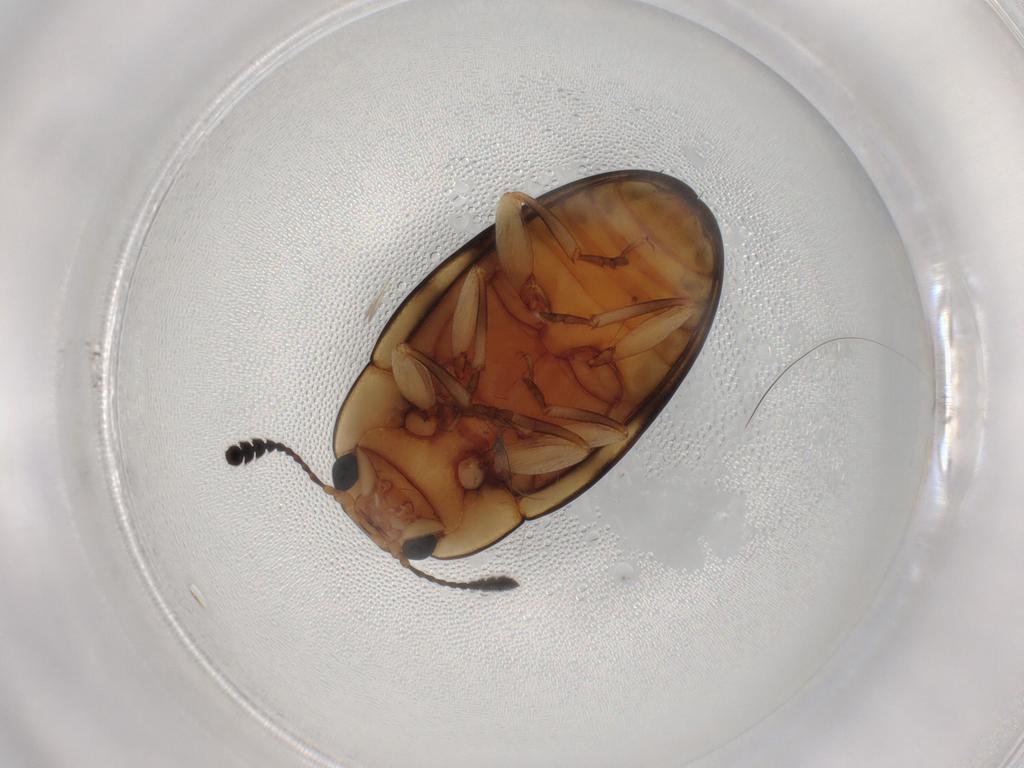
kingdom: Animalia
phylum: Arthropoda
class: Insecta
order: Coleoptera
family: Erotylidae
